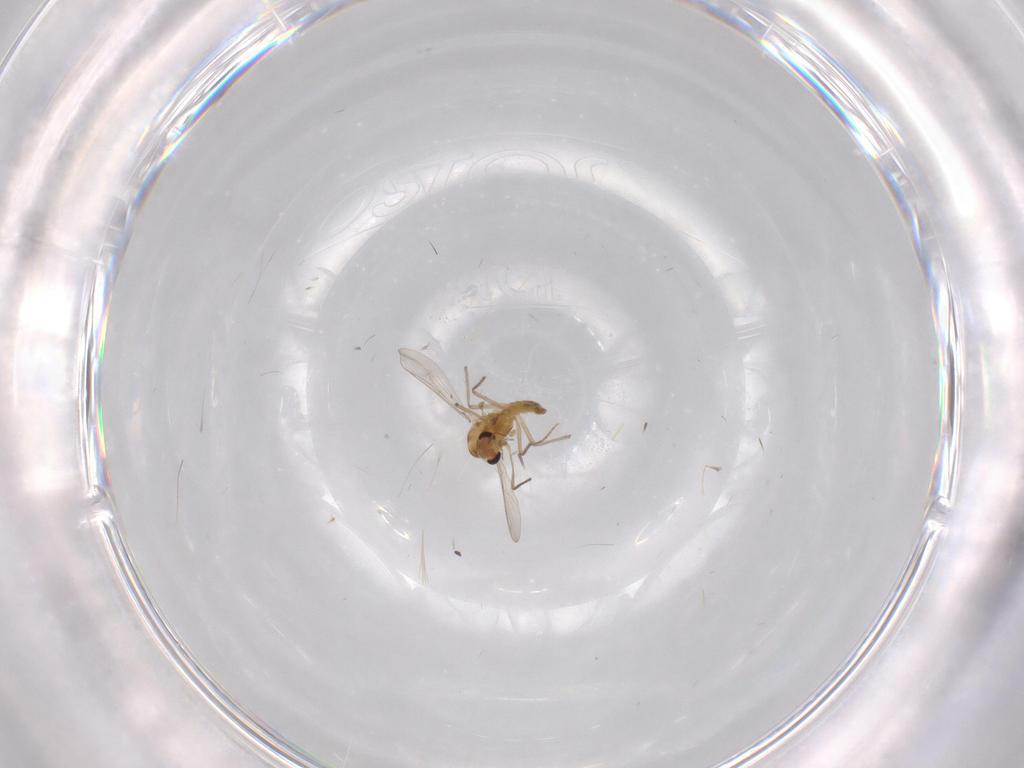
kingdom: Animalia
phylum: Arthropoda
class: Insecta
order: Diptera
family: Chironomidae
